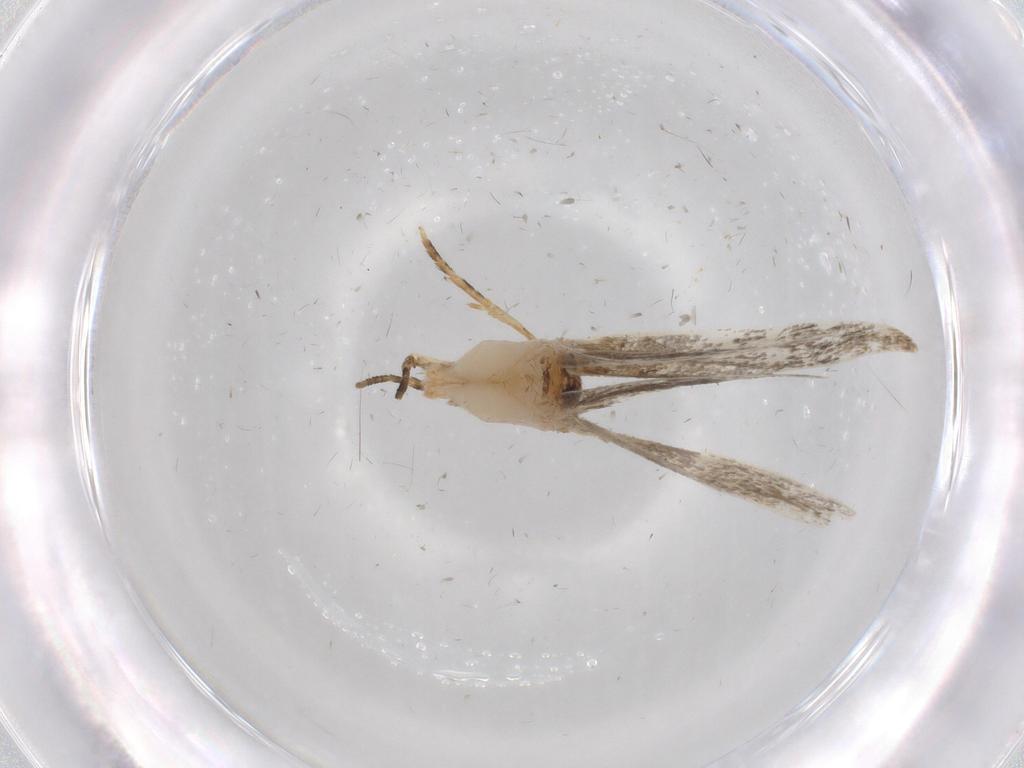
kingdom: Animalia
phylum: Arthropoda
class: Insecta
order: Lepidoptera
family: Tineidae
